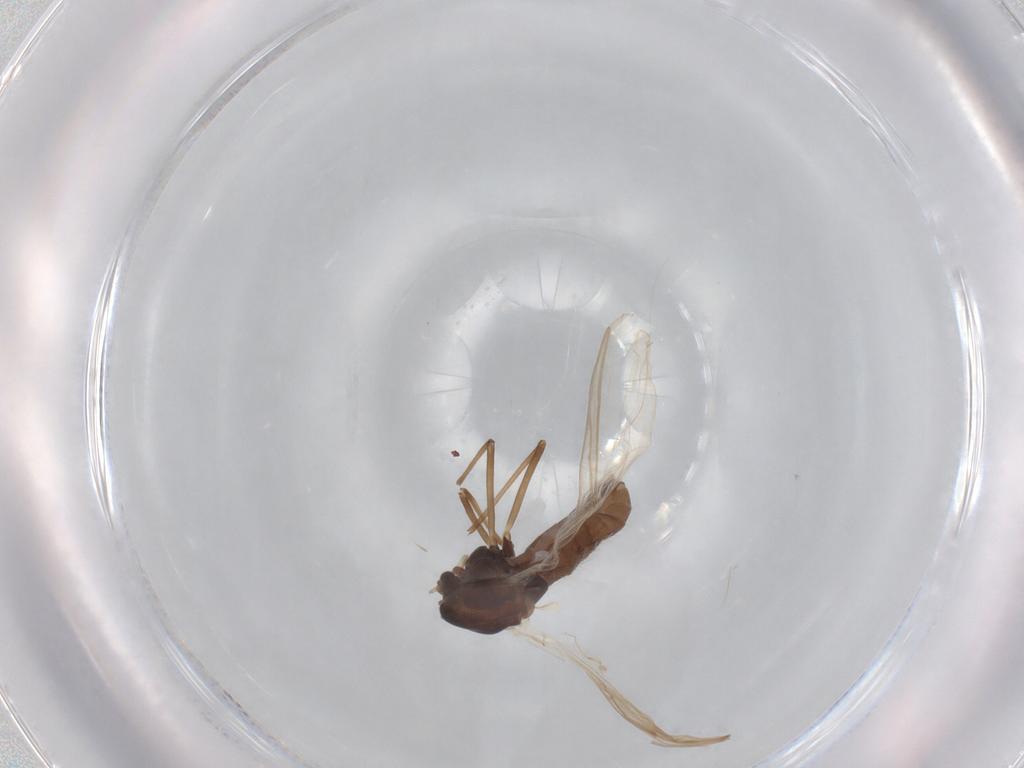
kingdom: Animalia
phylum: Arthropoda
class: Insecta
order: Diptera
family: Chironomidae
